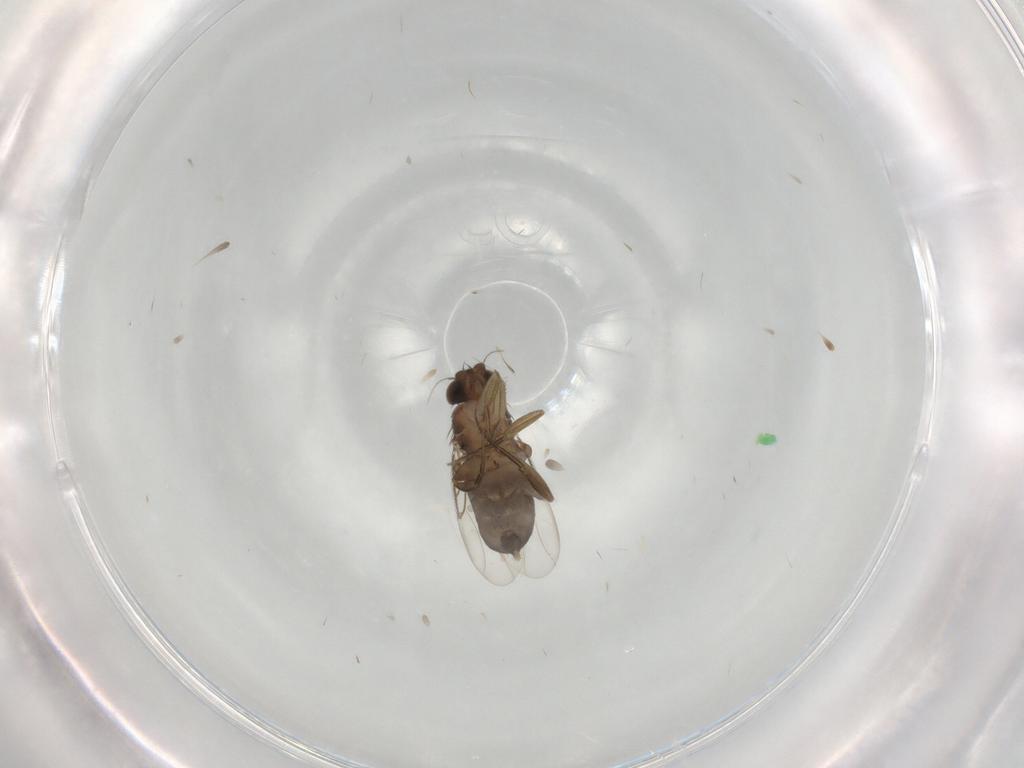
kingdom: Animalia
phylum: Arthropoda
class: Insecta
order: Diptera
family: Phoridae
